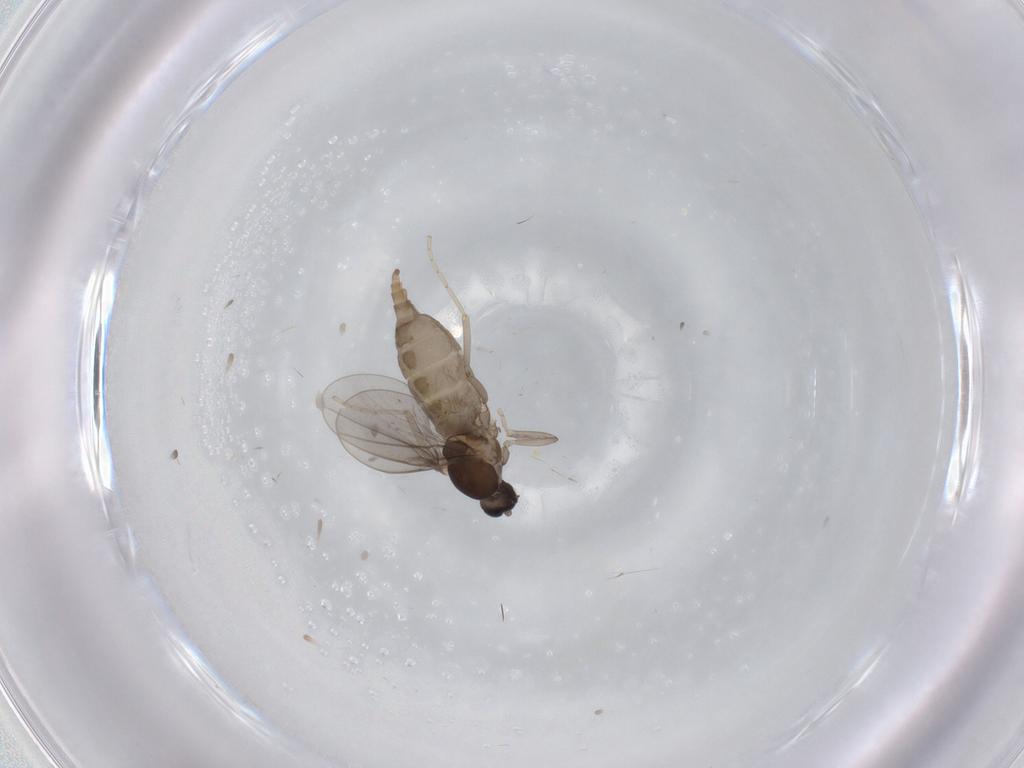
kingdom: Animalia
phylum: Arthropoda
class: Insecta
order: Diptera
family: Cecidomyiidae
